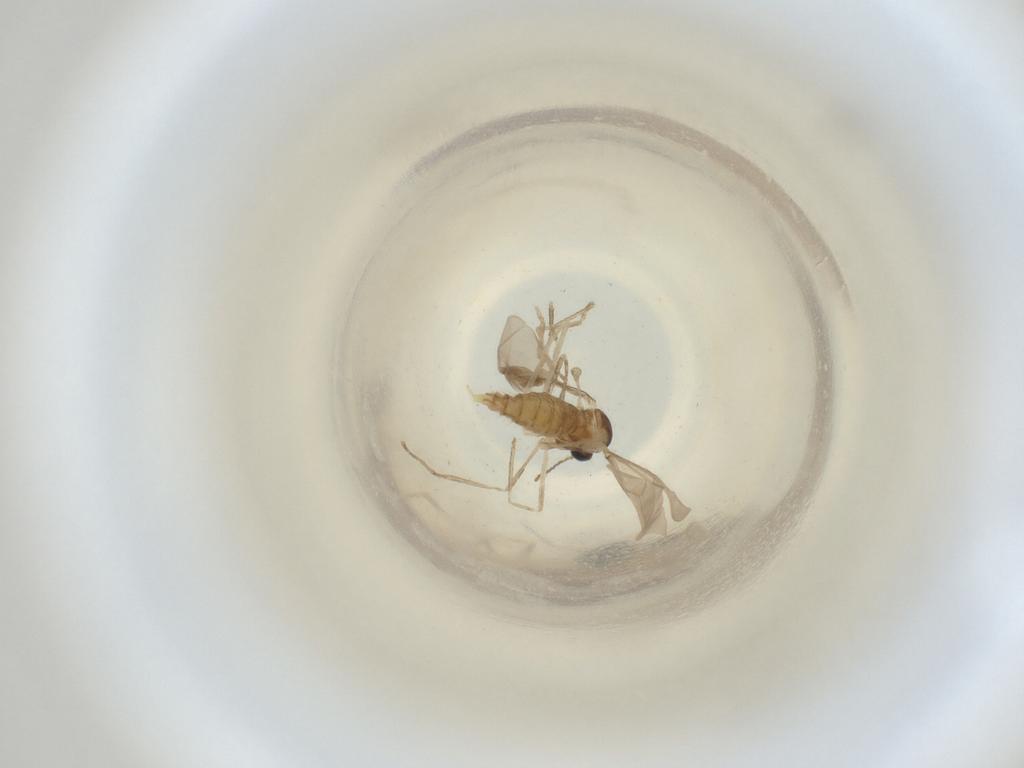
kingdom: Animalia
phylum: Arthropoda
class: Insecta
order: Diptera
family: Cecidomyiidae
